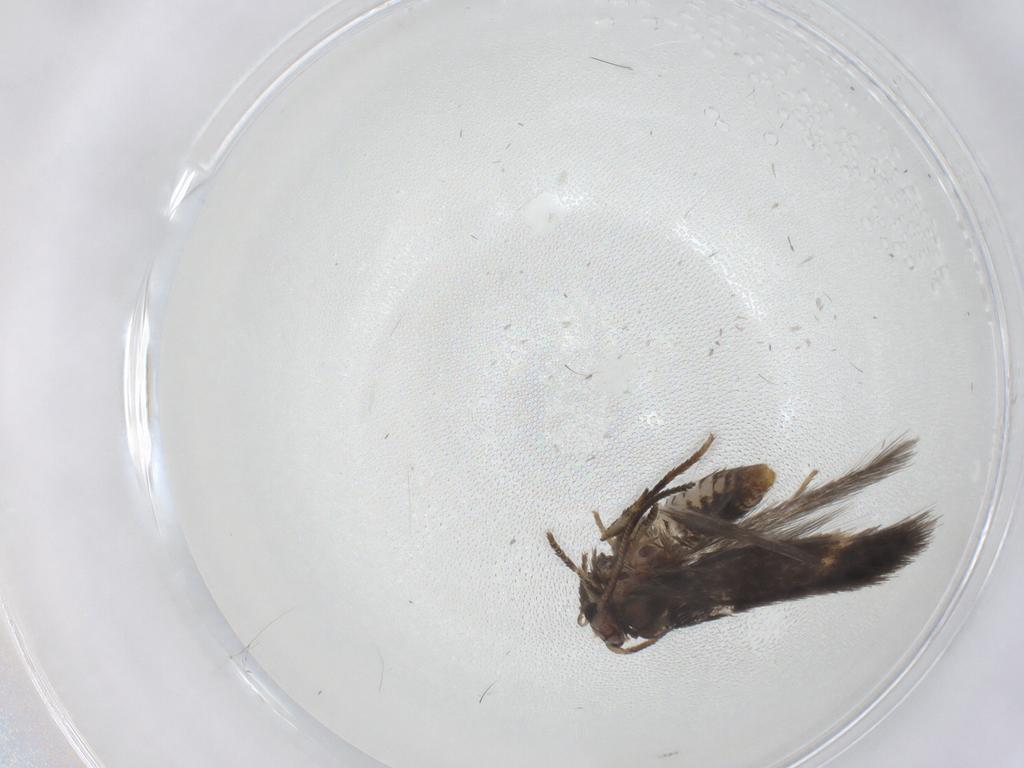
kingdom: Animalia
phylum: Arthropoda
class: Insecta
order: Lepidoptera
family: Nepticulidae
